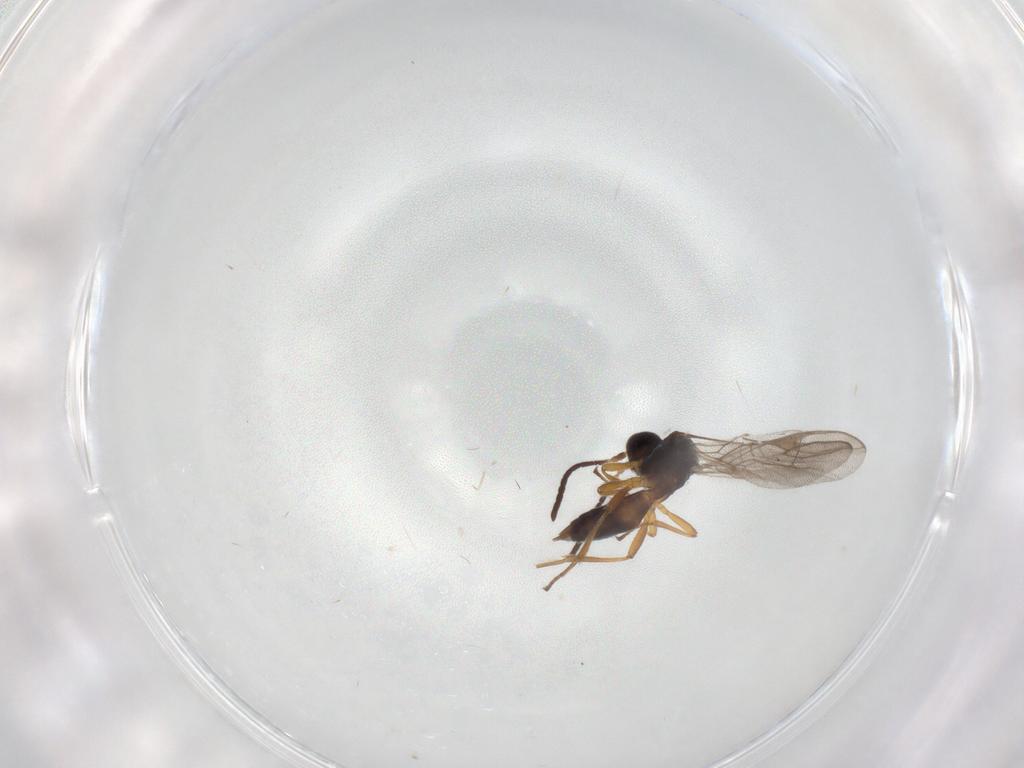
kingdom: Animalia
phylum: Arthropoda
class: Insecta
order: Hymenoptera
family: Braconidae
